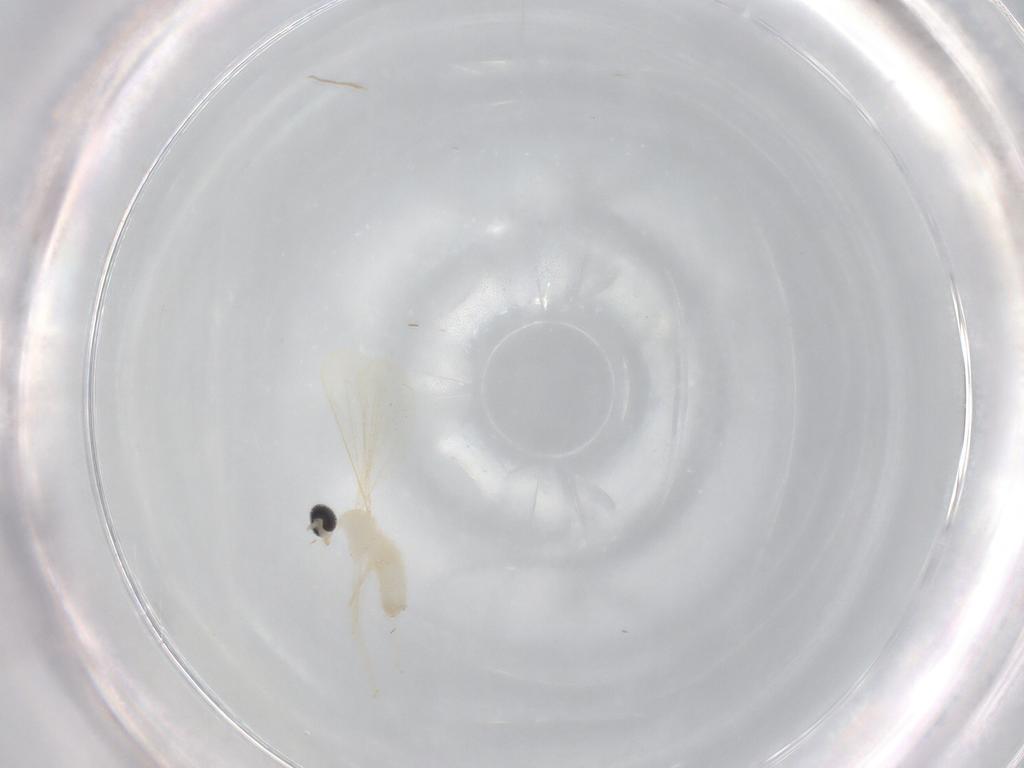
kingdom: Animalia
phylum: Arthropoda
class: Insecta
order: Diptera
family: Cecidomyiidae
